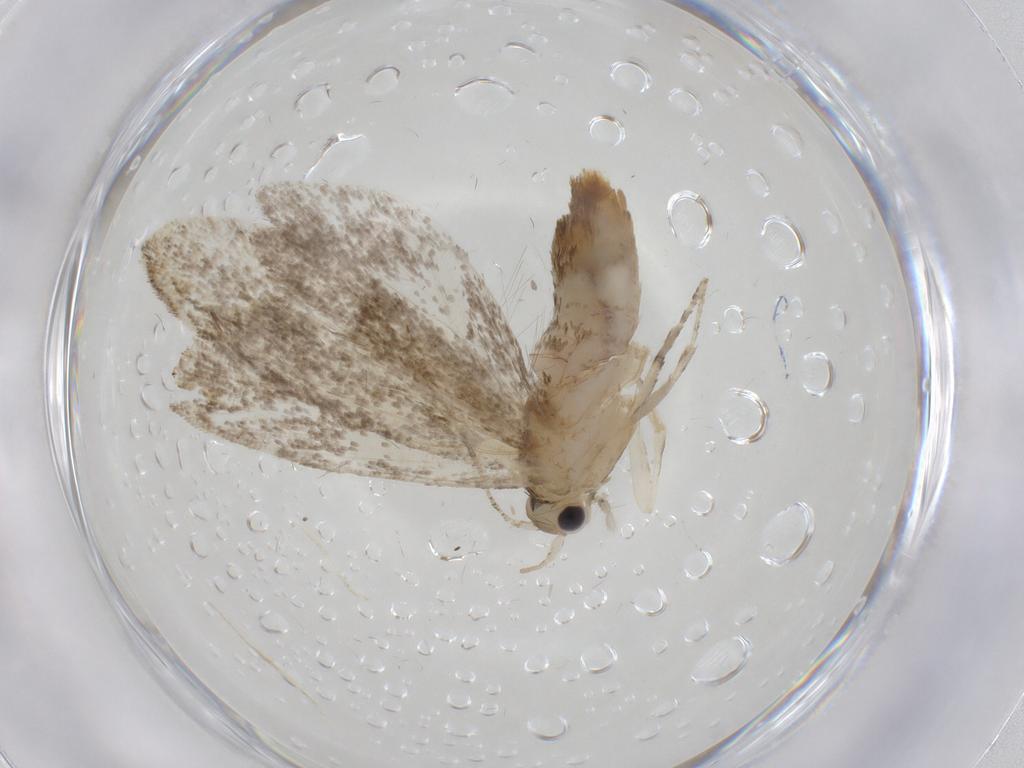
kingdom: Animalia
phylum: Arthropoda
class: Insecta
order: Lepidoptera
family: Tineidae
